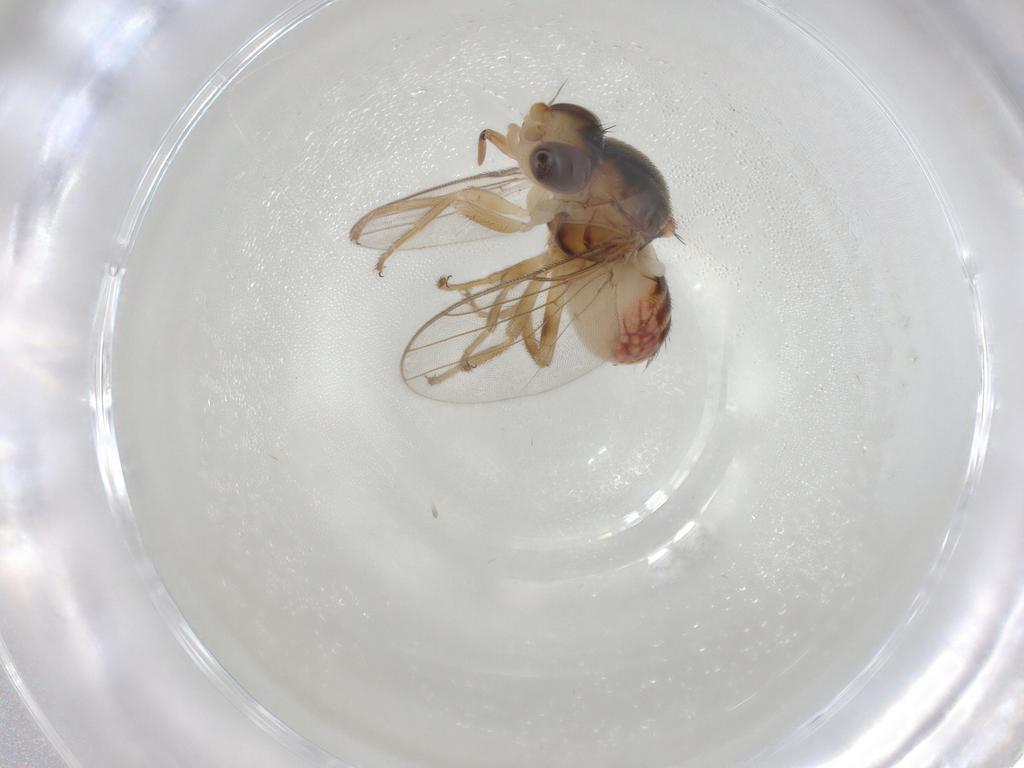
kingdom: Animalia
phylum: Arthropoda
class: Insecta
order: Diptera
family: Chloropidae
